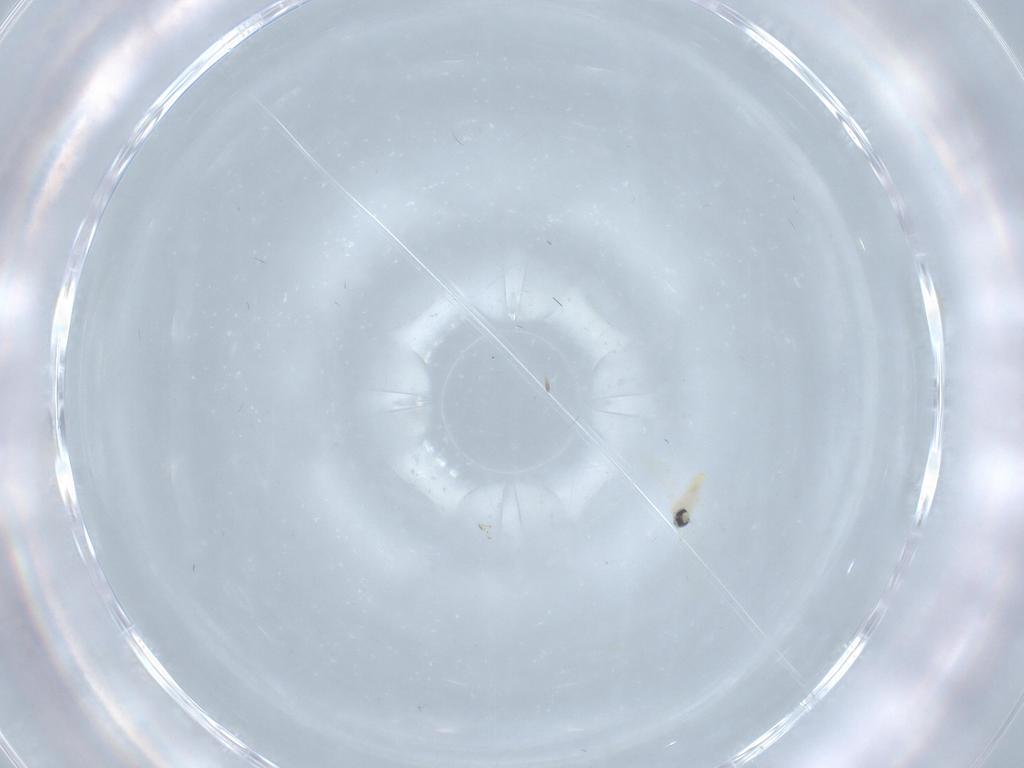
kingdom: Animalia
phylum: Arthropoda
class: Insecta
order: Diptera
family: Cecidomyiidae
